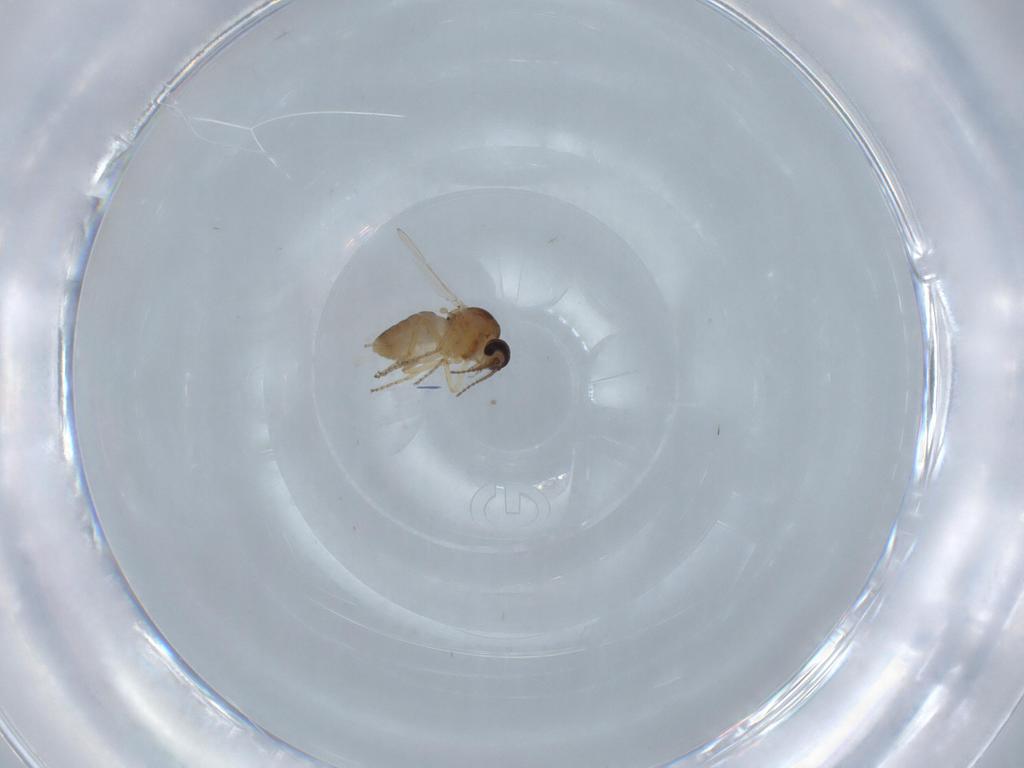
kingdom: Animalia
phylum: Arthropoda
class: Insecta
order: Diptera
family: Ceratopogonidae
